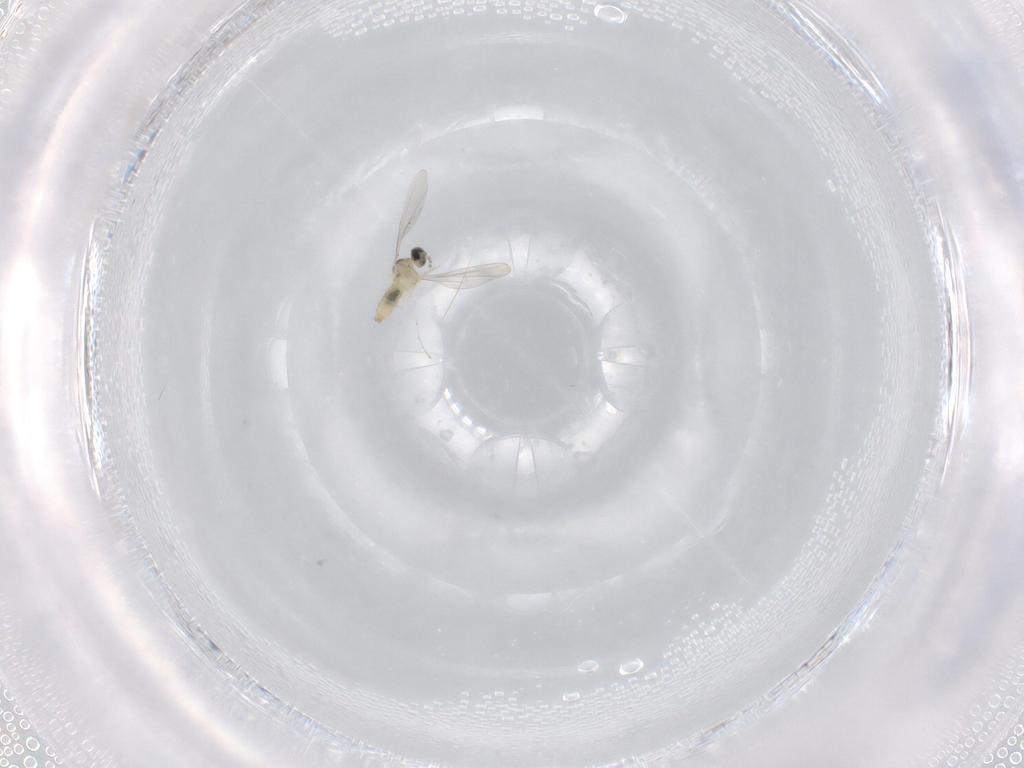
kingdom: Animalia
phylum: Arthropoda
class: Insecta
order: Diptera
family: Cecidomyiidae
